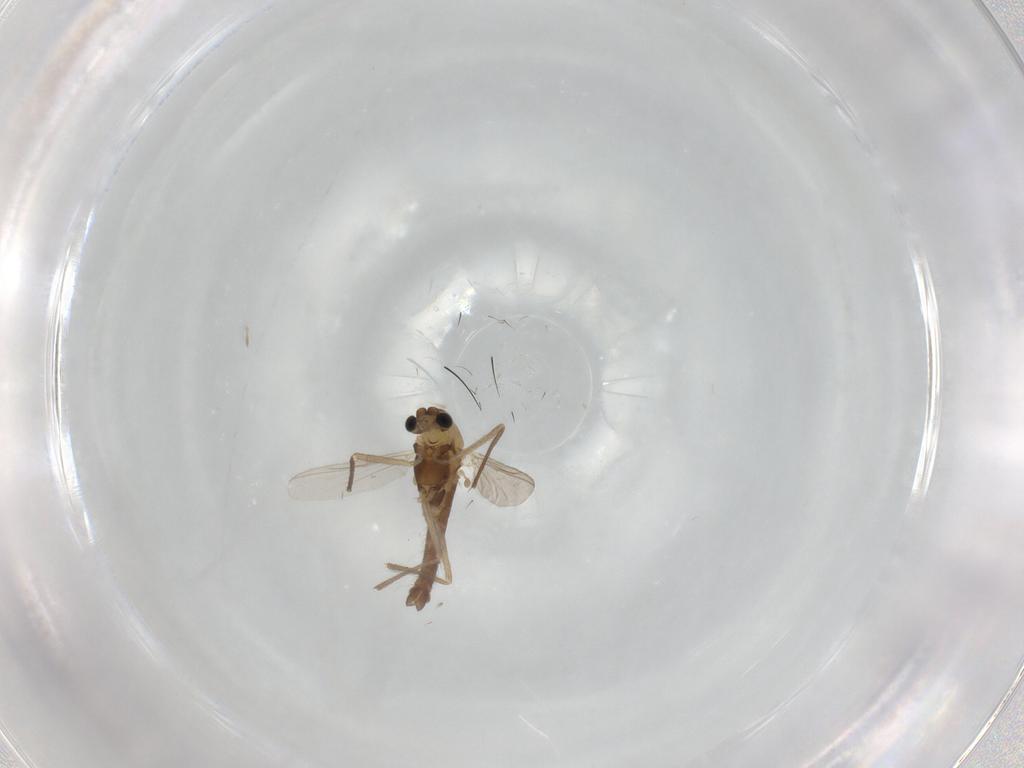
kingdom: Animalia
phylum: Arthropoda
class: Insecta
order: Diptera
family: Chironomidae
